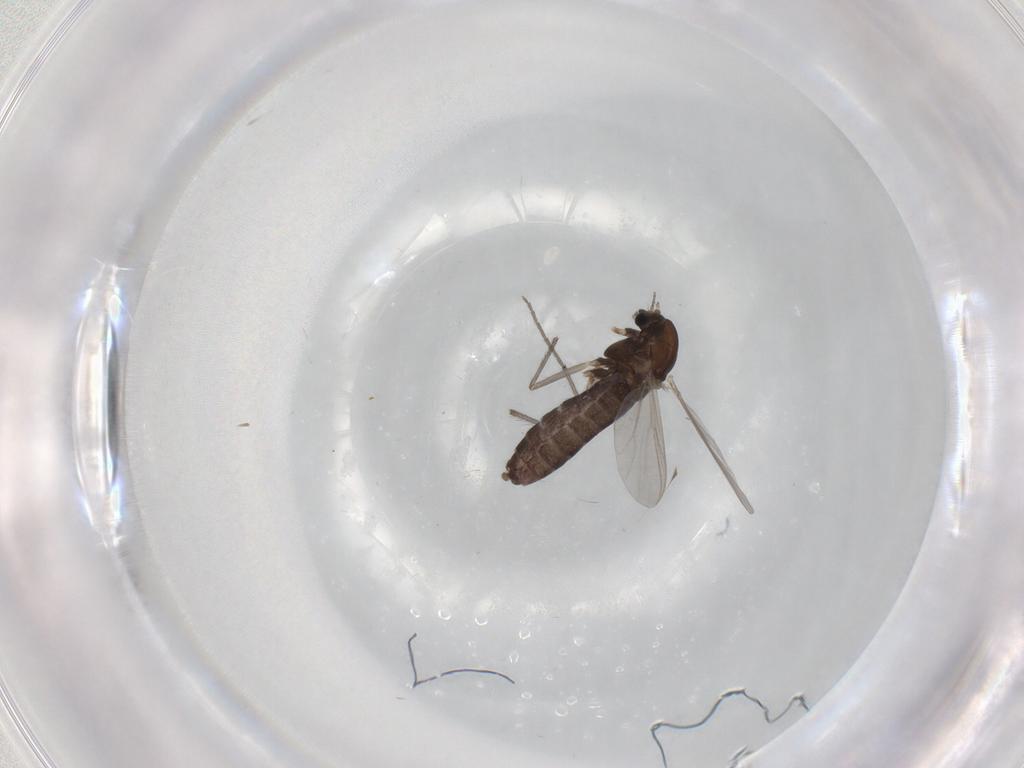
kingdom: Animalia
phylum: Arthropoda
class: Insecta
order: Diptera
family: Chironomidae
